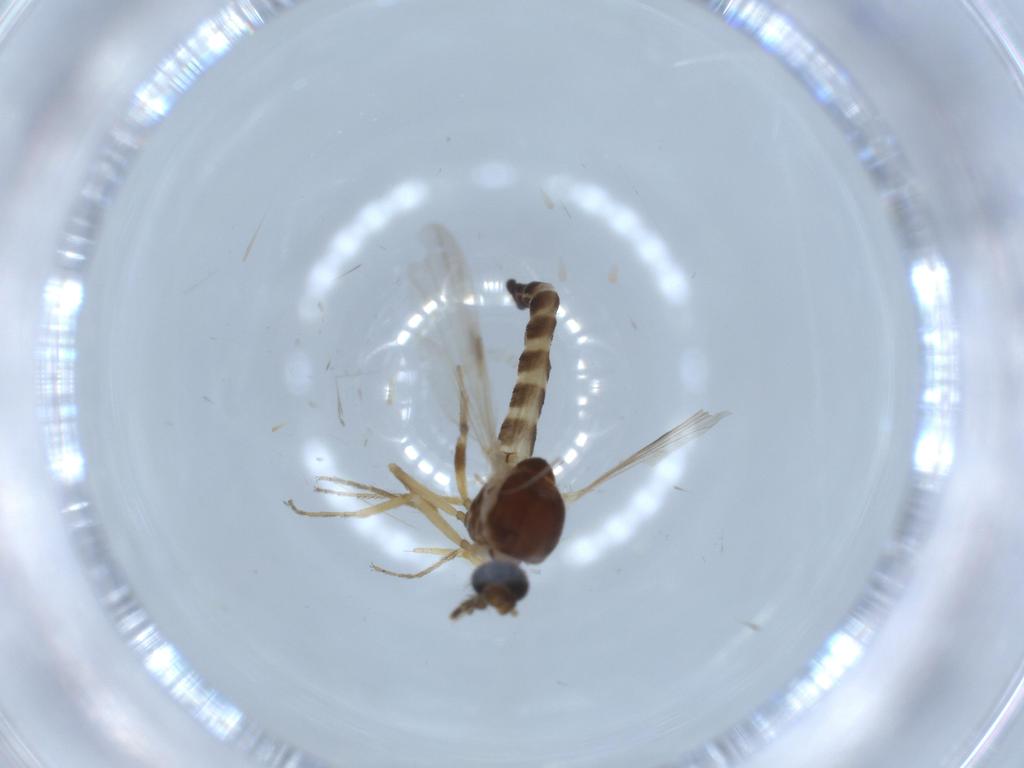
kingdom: Animalia
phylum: Arthropoda
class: Insecta
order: Diptera
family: Ceratopogonidae
